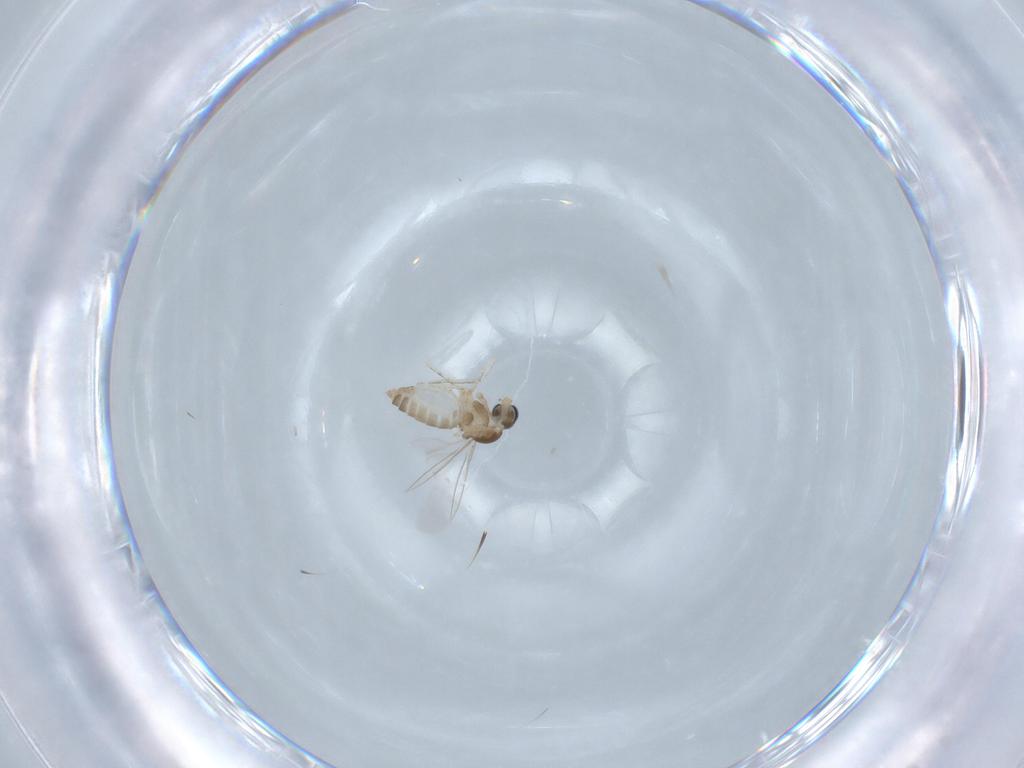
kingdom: Animalia
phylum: Arthropoda
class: Insecta
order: Diptera
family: Cecidomyiidae
